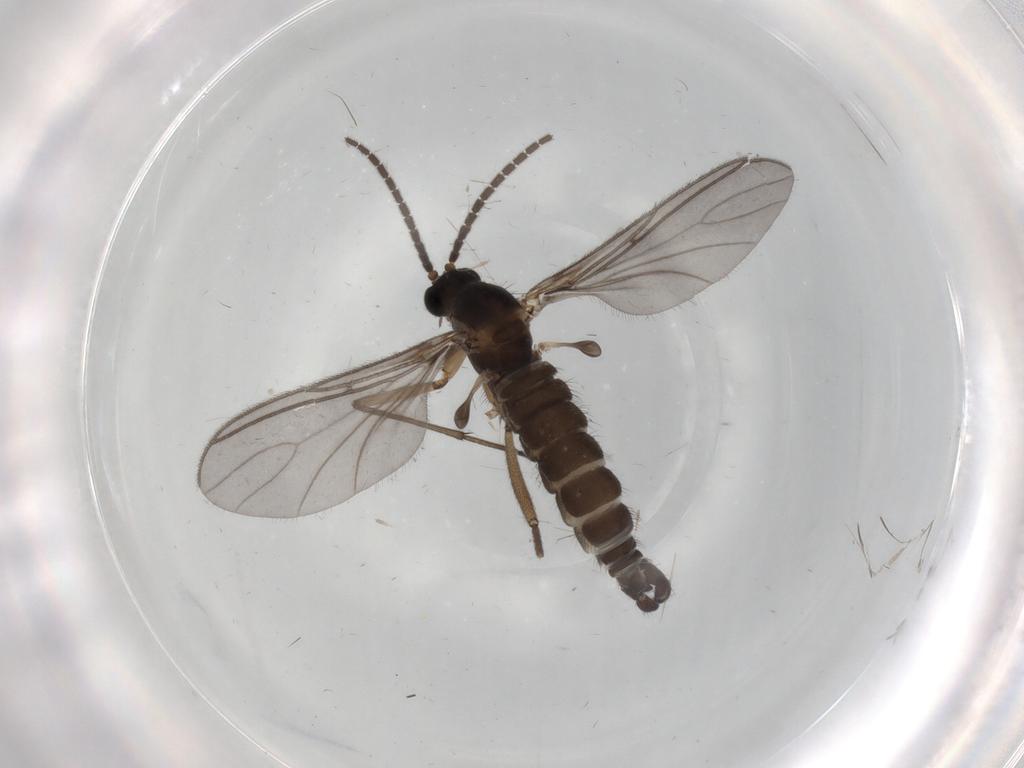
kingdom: Animalia
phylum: Arthropoda
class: Insecta
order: Diptera
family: Sciaridae
